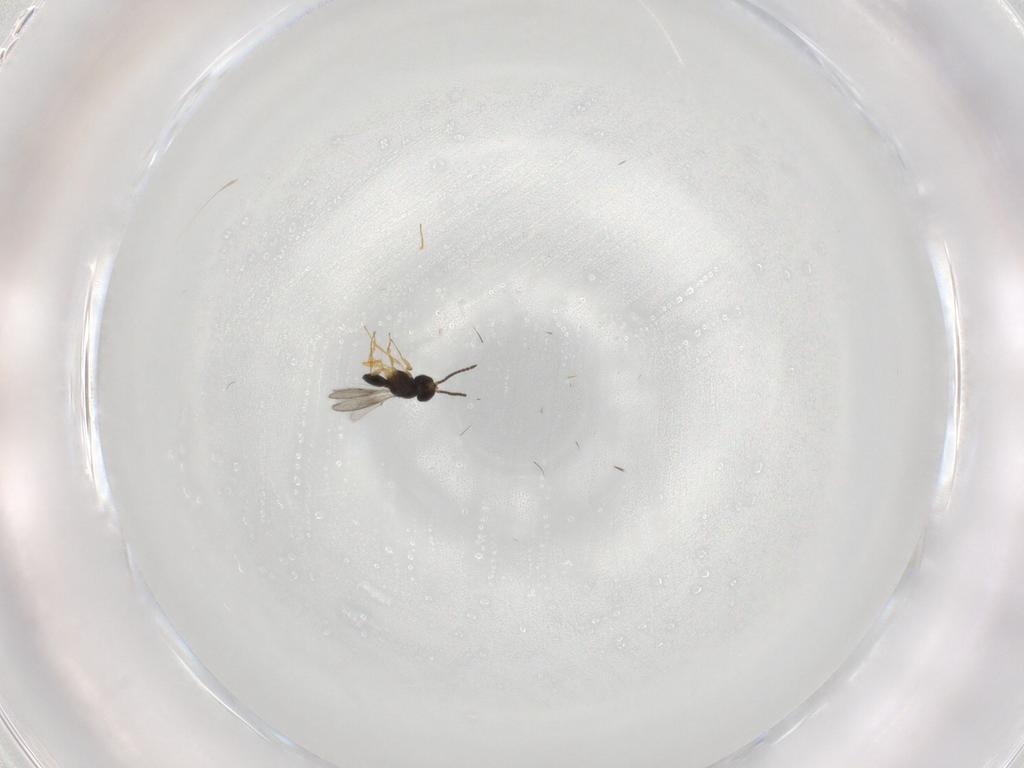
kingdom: Animalia
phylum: Arthropoda
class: Insecta
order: Hymenoptera
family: Scelionidae
